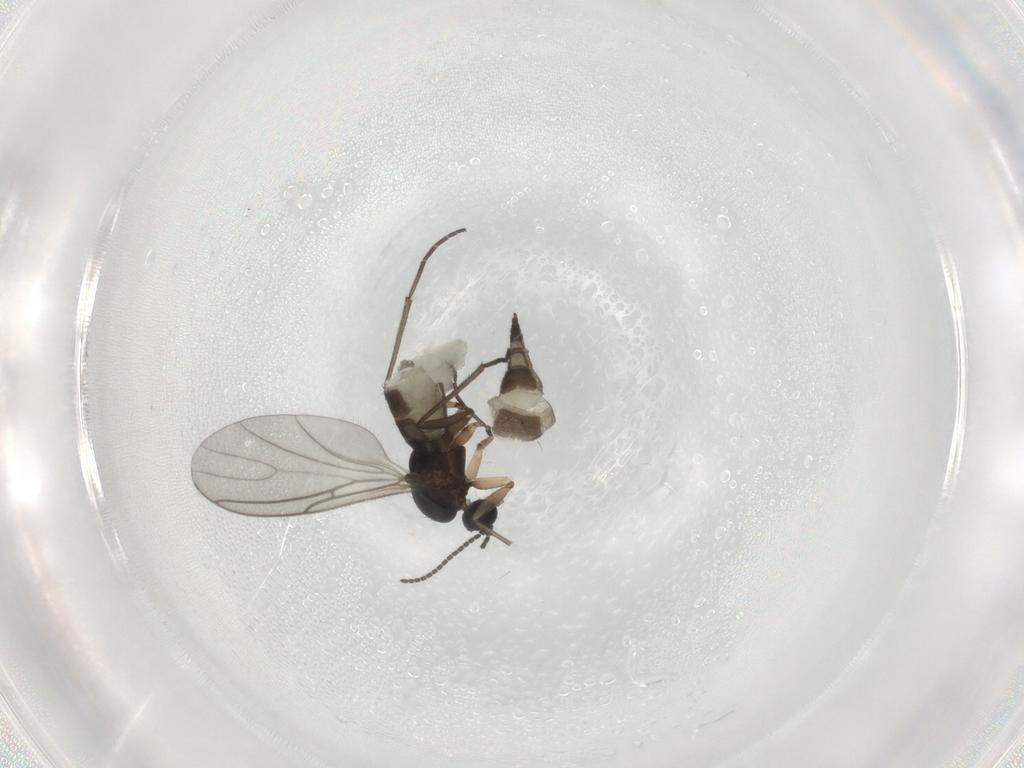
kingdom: Animalia
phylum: Arthropoda
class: Insecta
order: Diptera
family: Sciaridae
